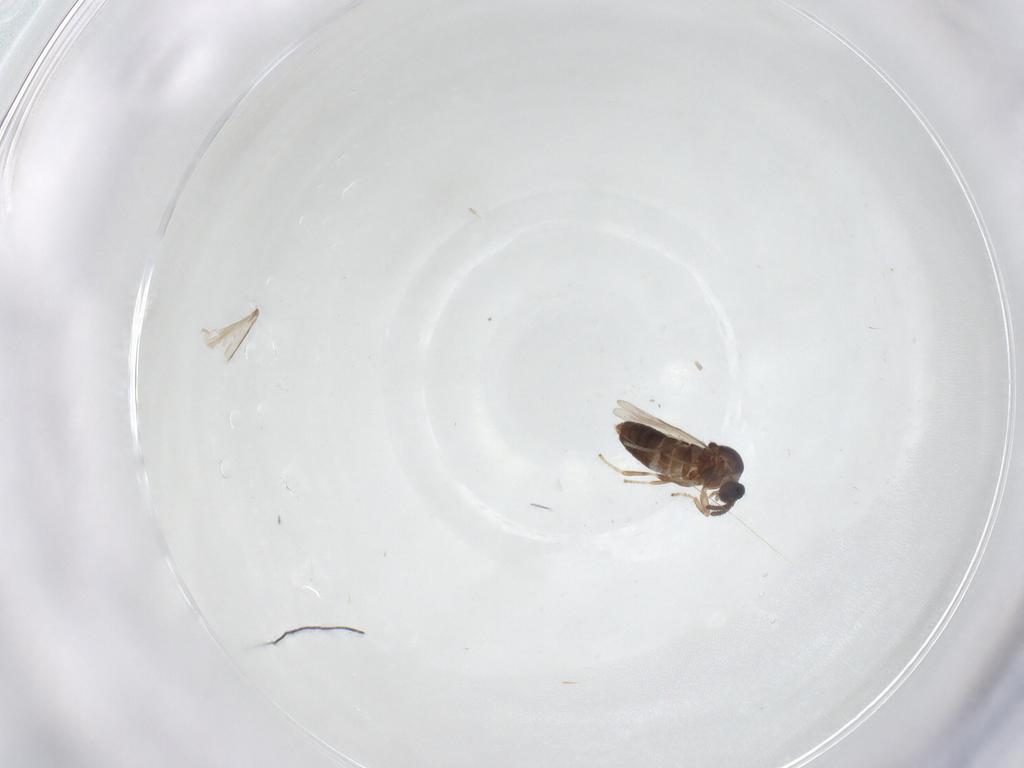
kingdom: Animalia
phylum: Arthropoda
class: Insecta
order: Diptera
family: Scatopsidae
